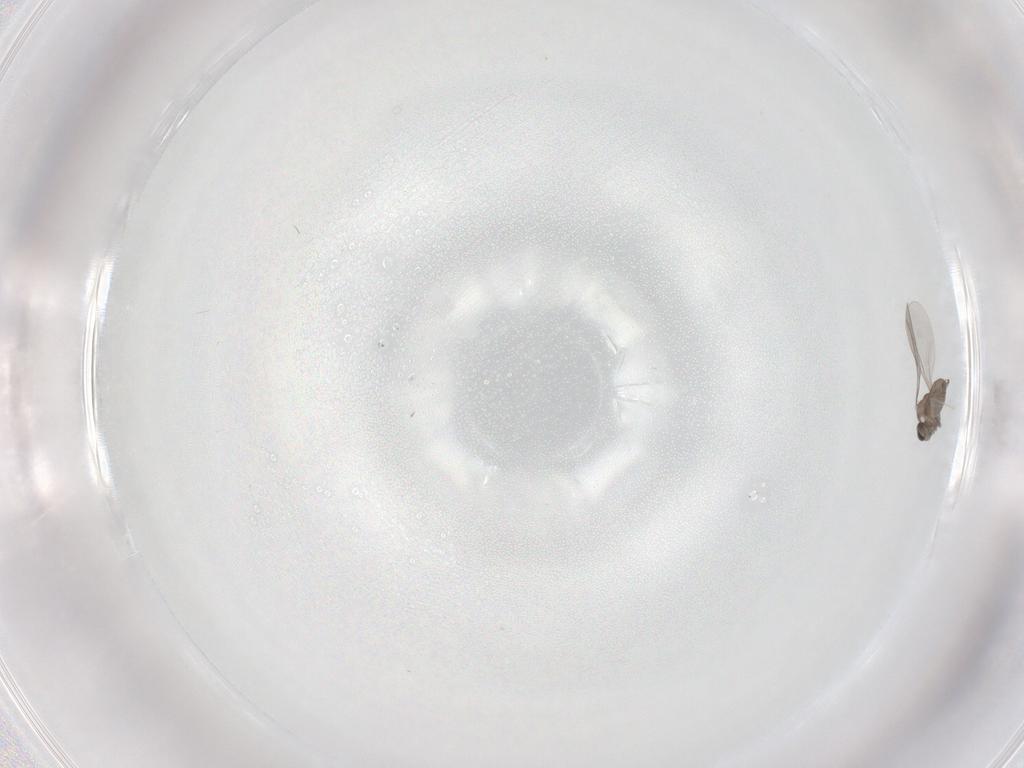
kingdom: Animalia
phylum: Arthropoda
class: Insecta
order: Diptera
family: Cecidomyiidae
